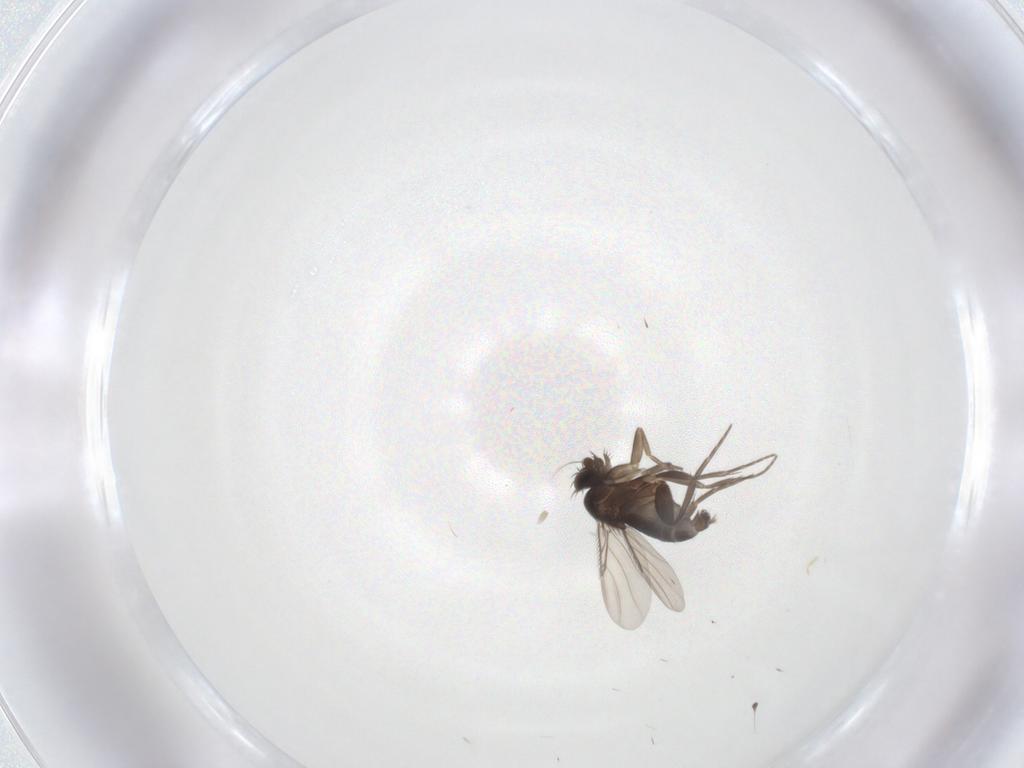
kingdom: Animalia
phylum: Arthropoda
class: Insecta
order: Diptera
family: Phoridae
